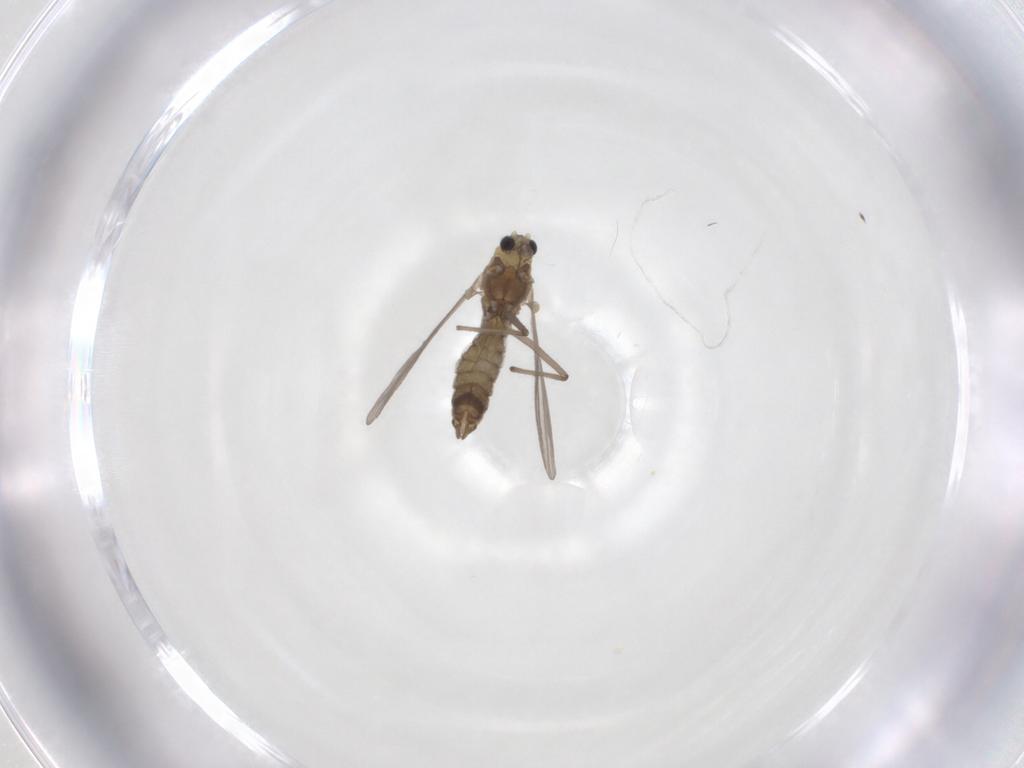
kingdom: Animalia
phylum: Arthropoda
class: Insecta
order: Diptera
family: Chironomidae
